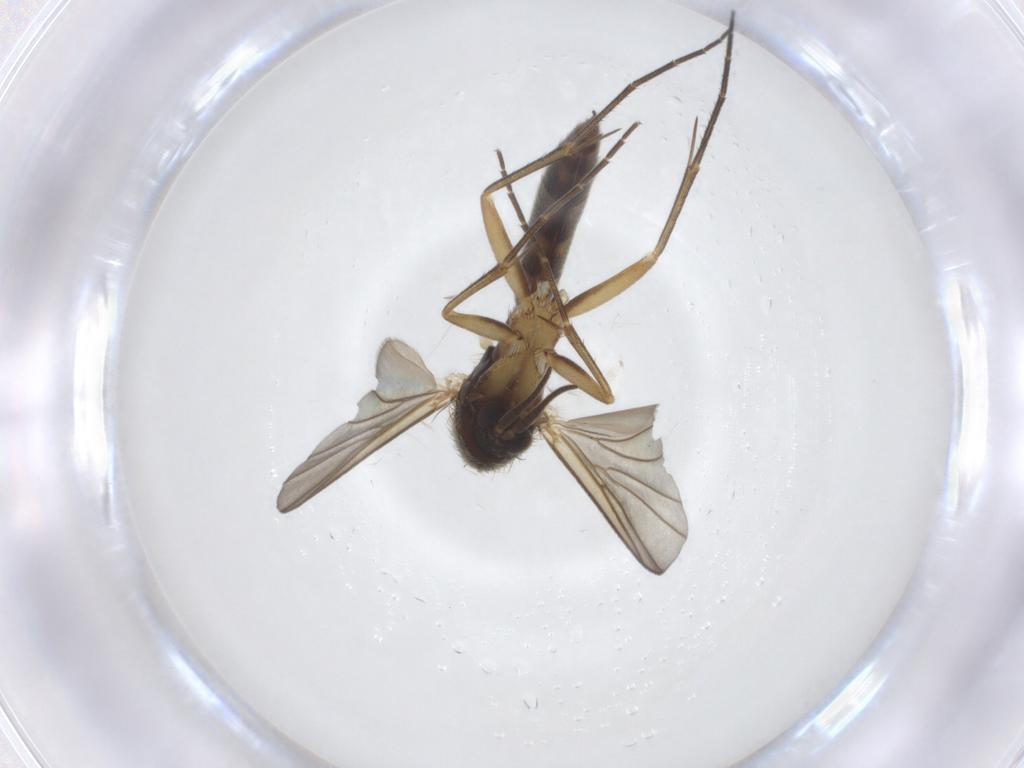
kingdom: Animalia
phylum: Arthropoda
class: Insecta
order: Diptera
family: Mycetophilidae
